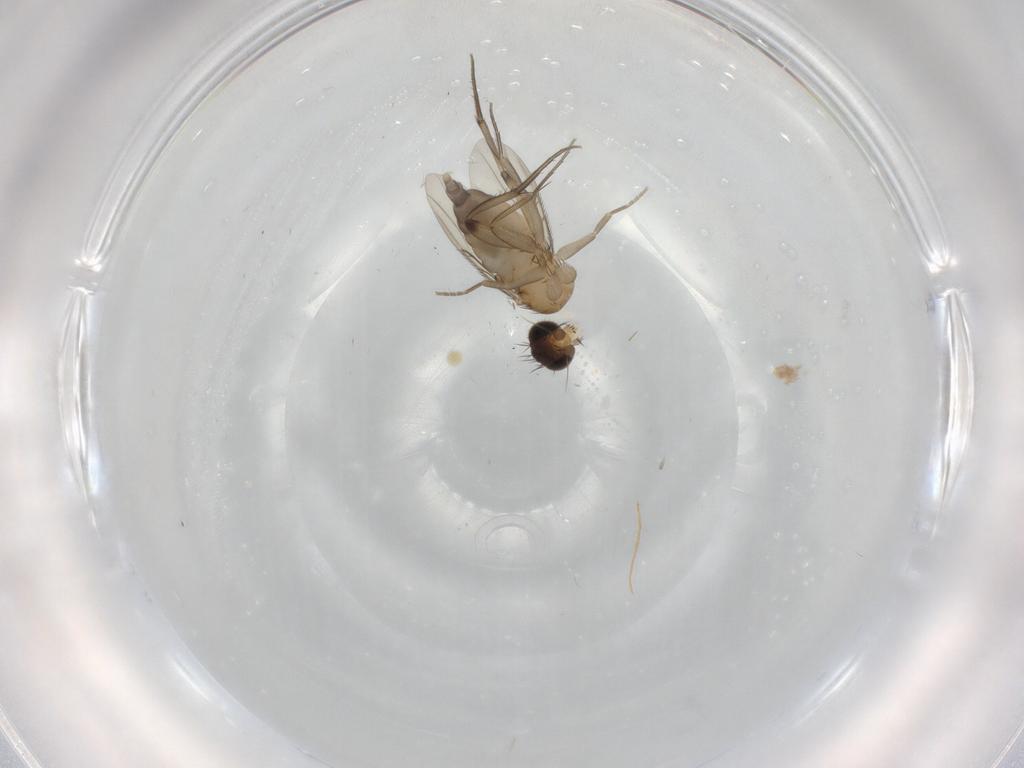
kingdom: Animalia
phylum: Arthropoda
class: Insecta
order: Diptera
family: Phoridae
